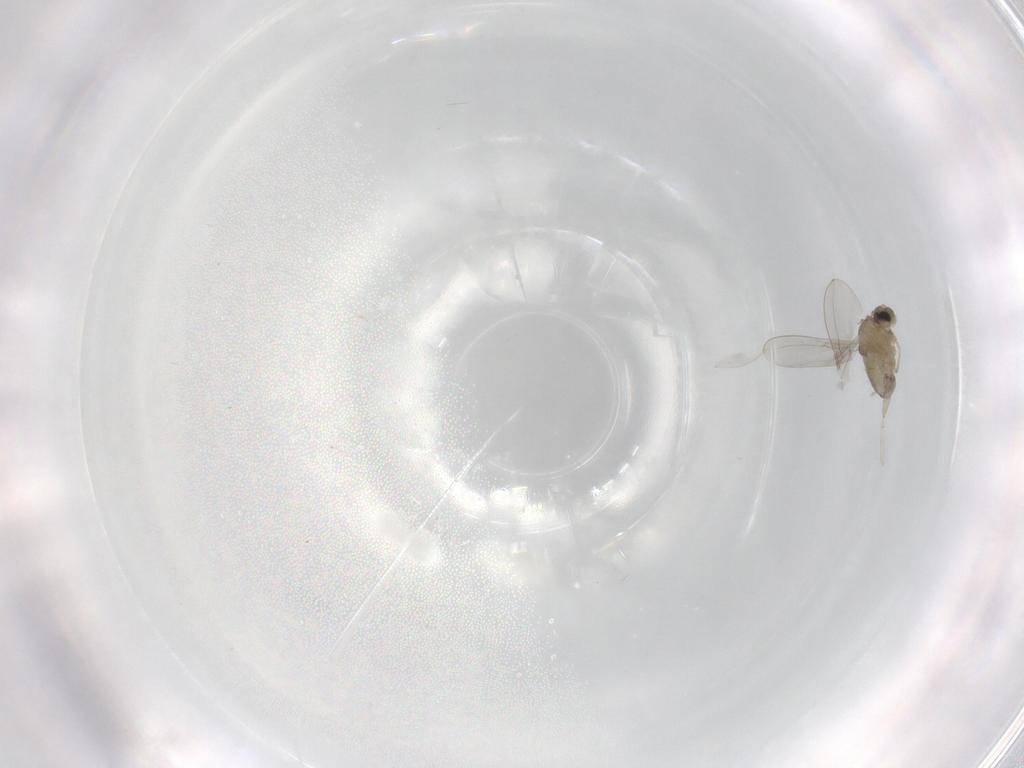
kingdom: Animalia
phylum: Arthropoda
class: Insecta
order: Diptera
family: Cecidomyiidae
